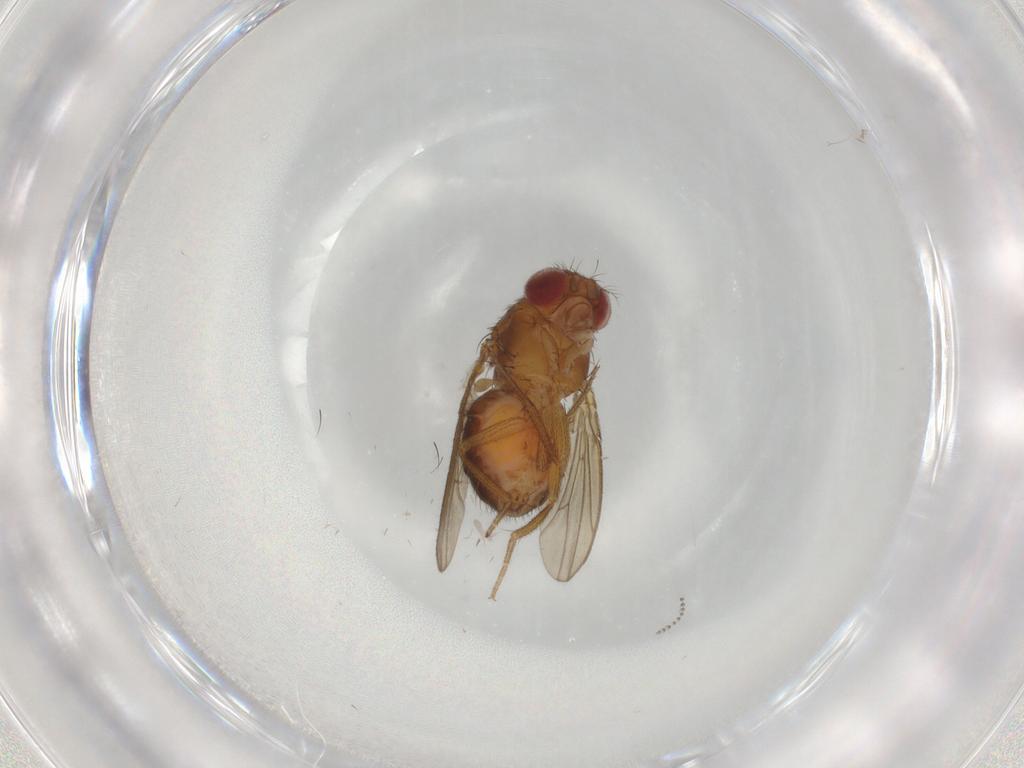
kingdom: Animalia
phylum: Arthropoda
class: Insecta
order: Diptera
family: Drosophilidae
